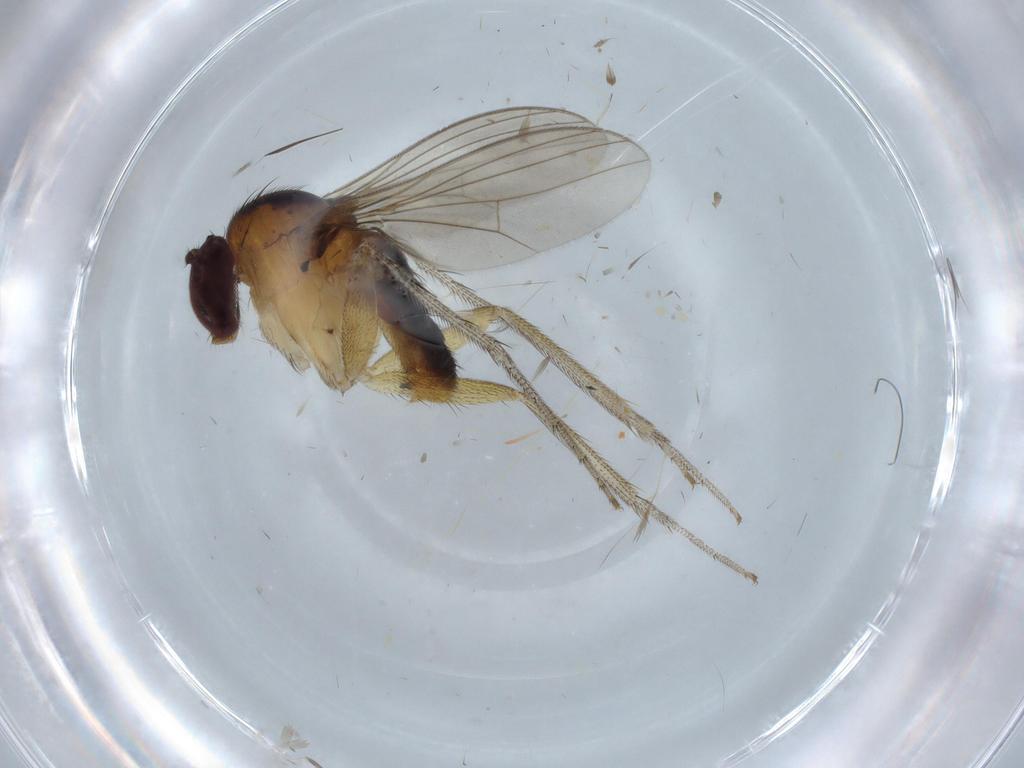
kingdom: Animalia
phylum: Arthropoda
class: Insecta
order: Diptera
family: Dolichopodidae
